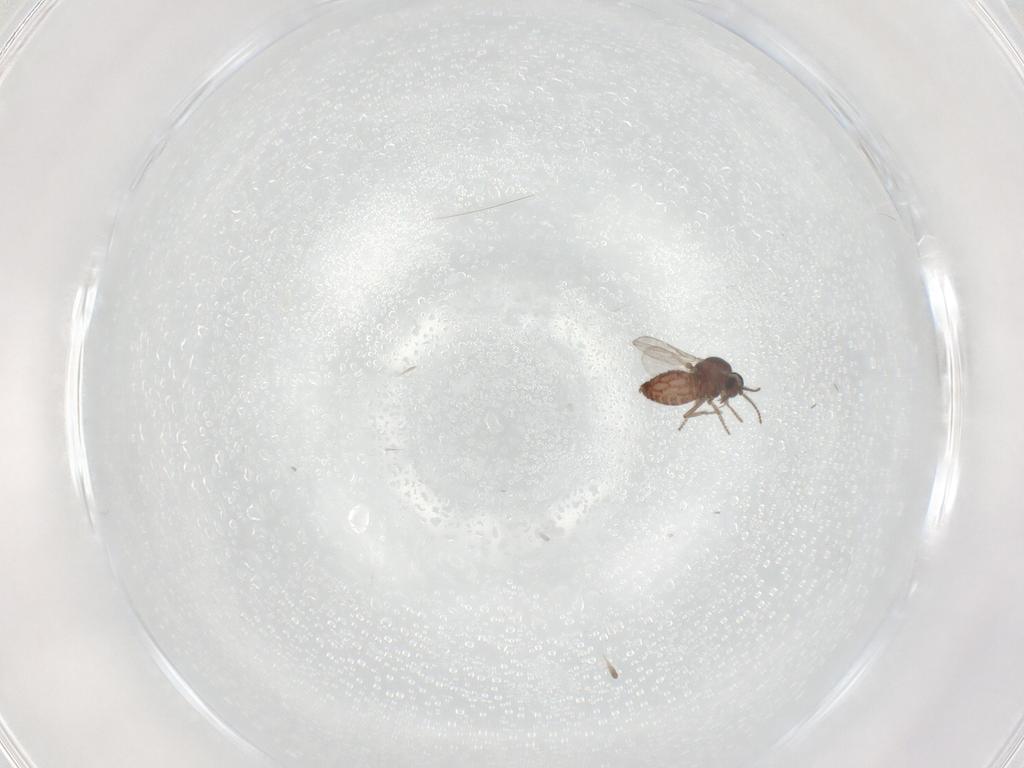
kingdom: Animalia
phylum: Arthropoda
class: Insecta
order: Diptera
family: Ceratopogonidae
